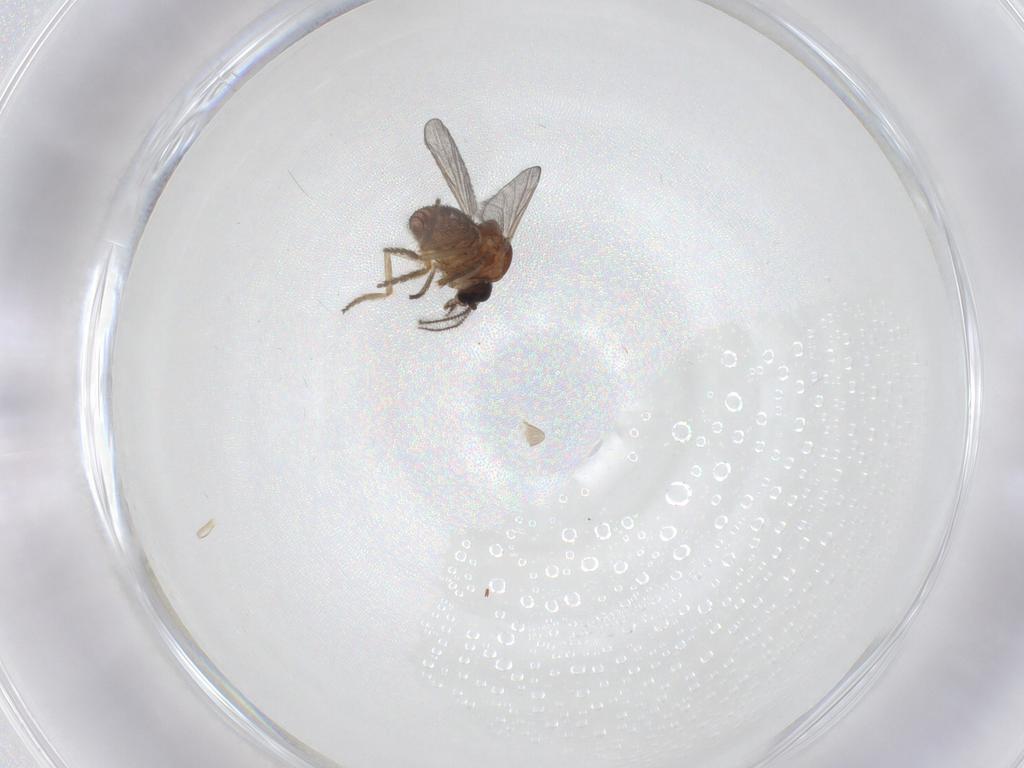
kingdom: Animalia
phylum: Arthropoda
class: Insecta
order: Diptera
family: Ceratopogonidae
